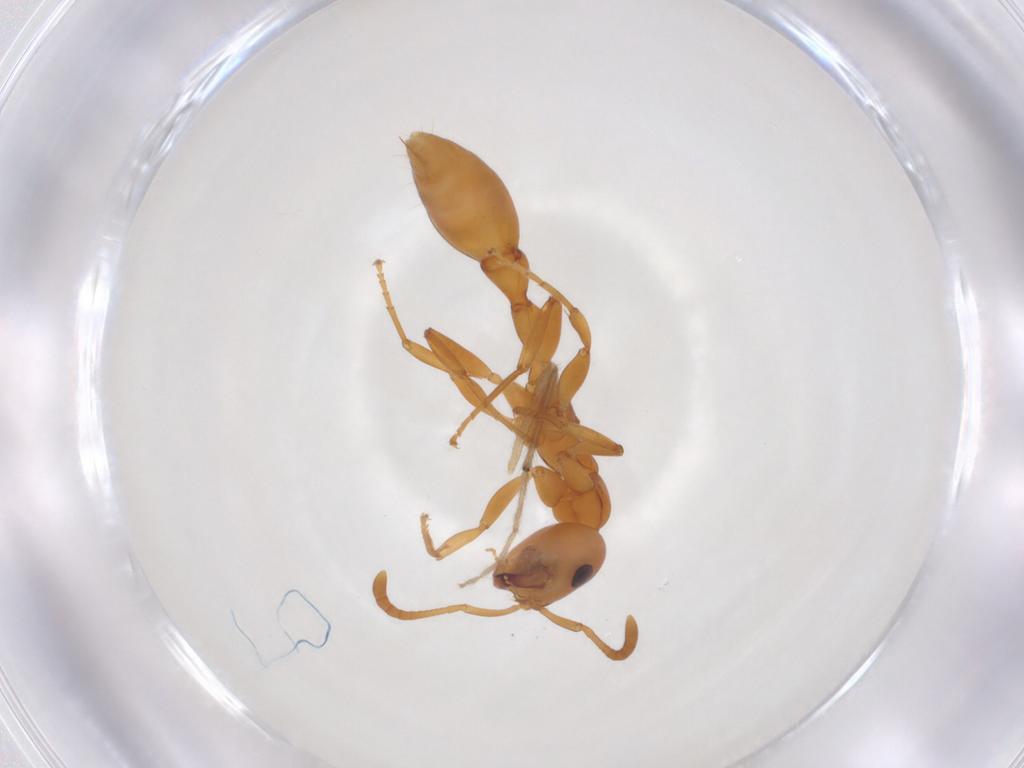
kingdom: Animalia
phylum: Arthropoda
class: Insecta
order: Hymenoptera
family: Formicidae
